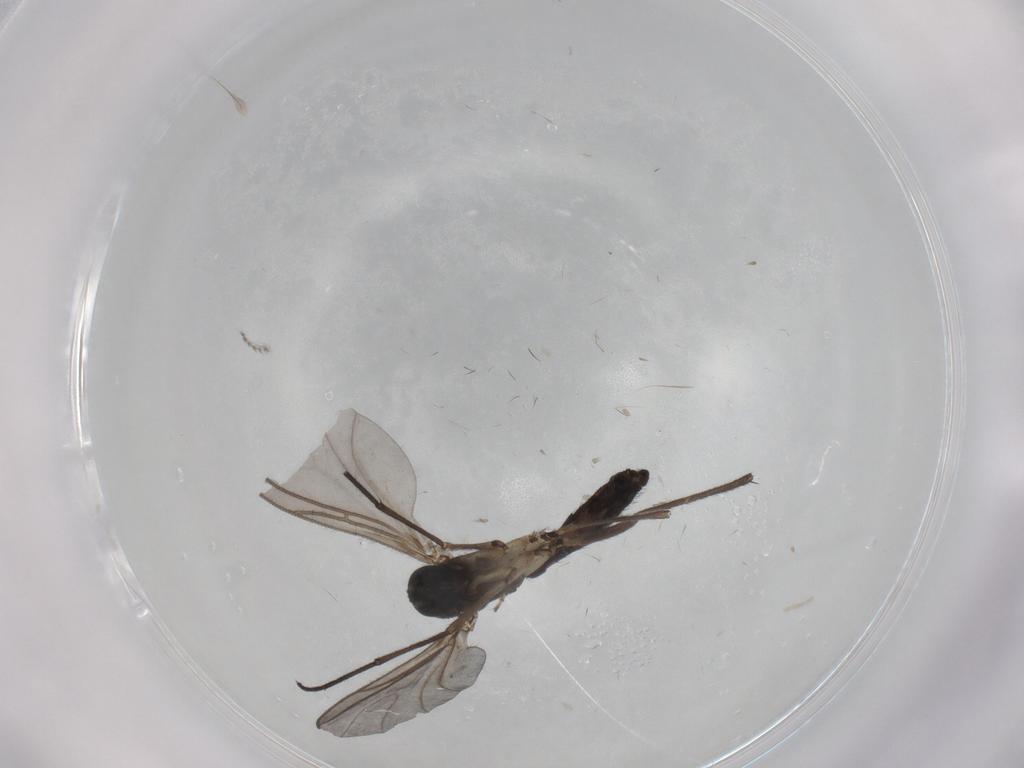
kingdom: Animalia
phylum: Arthropoda
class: Insecta
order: Diptera
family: Cecidomyiidae
